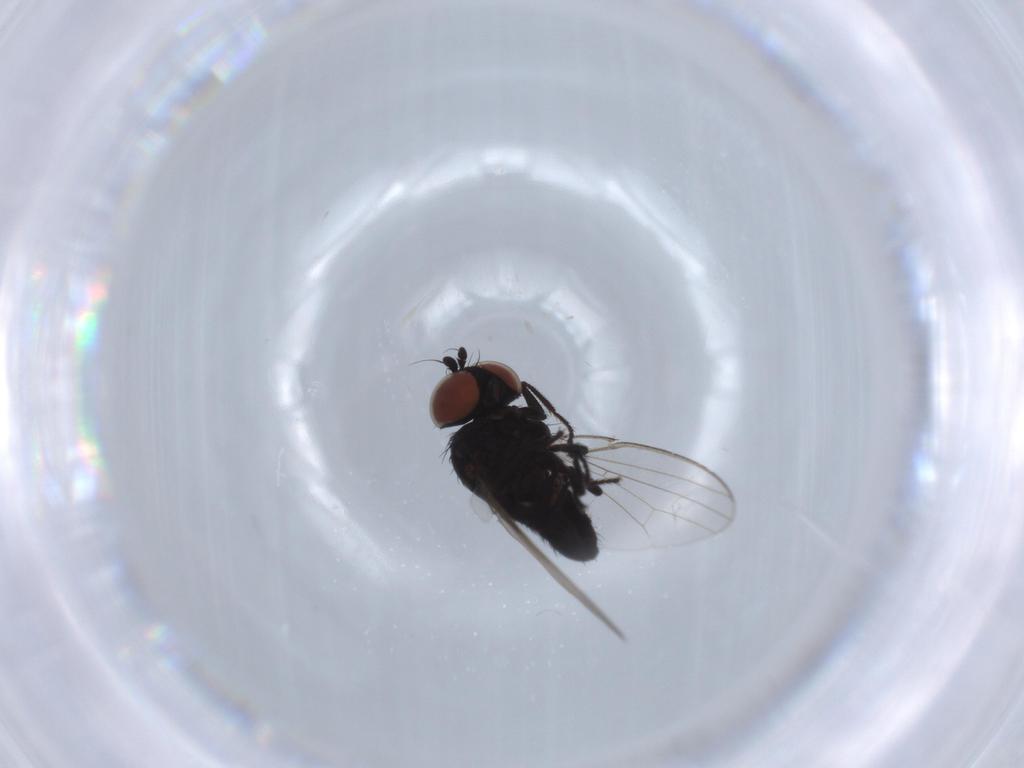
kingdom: Animalia
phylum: Arthropoda
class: Insecta
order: Diptera
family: Milichiidae
